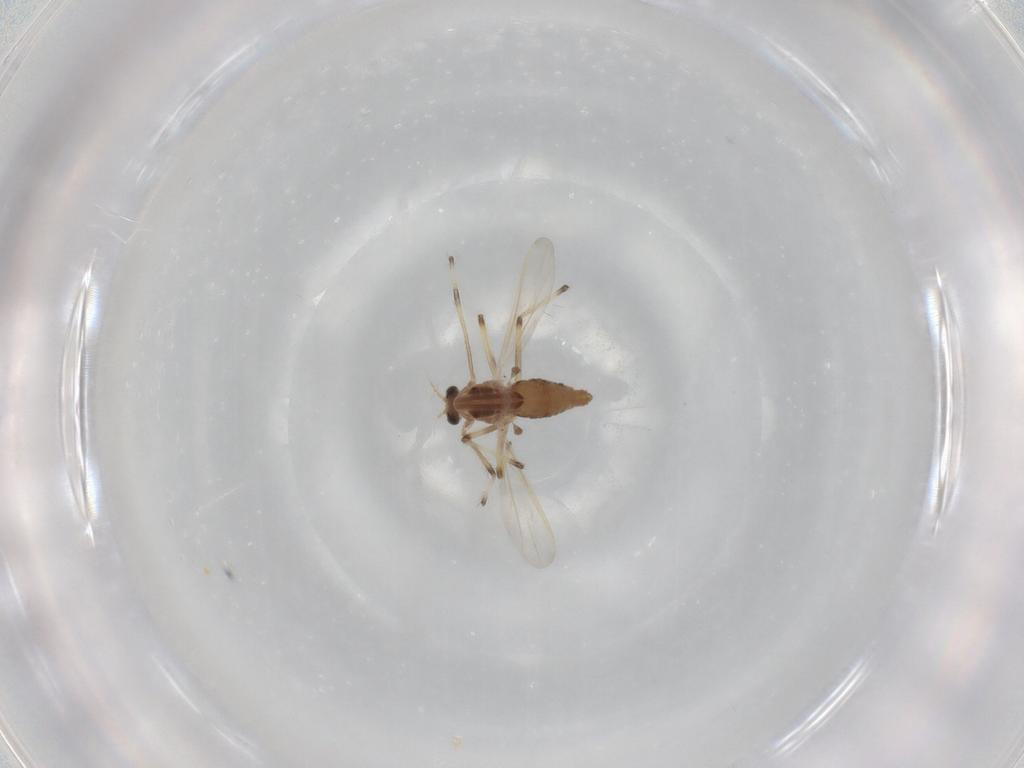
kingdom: Animalia
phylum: Arthropoda
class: Insecta
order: Diptera
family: Chironomidae
